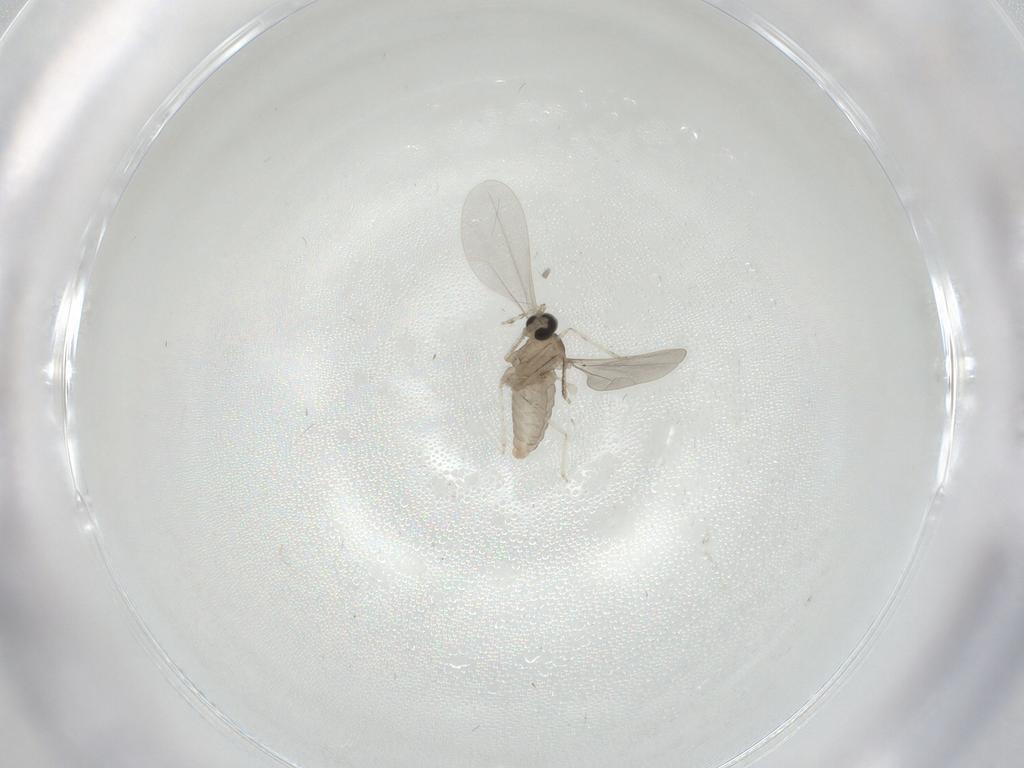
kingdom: Animalia
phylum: Arthropoda
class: Insecta
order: Diptera
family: Cecidomyiidae
